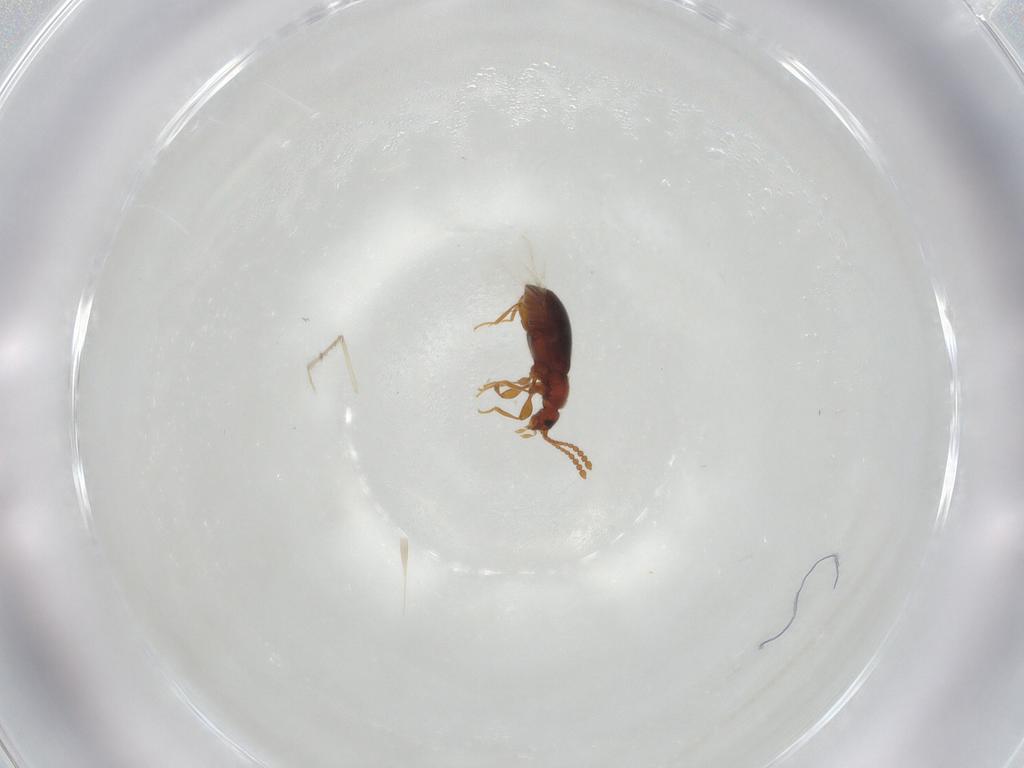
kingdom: Animalia
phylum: Arthropoda
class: Insecta
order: Coleoptera
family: Staphylinidae
